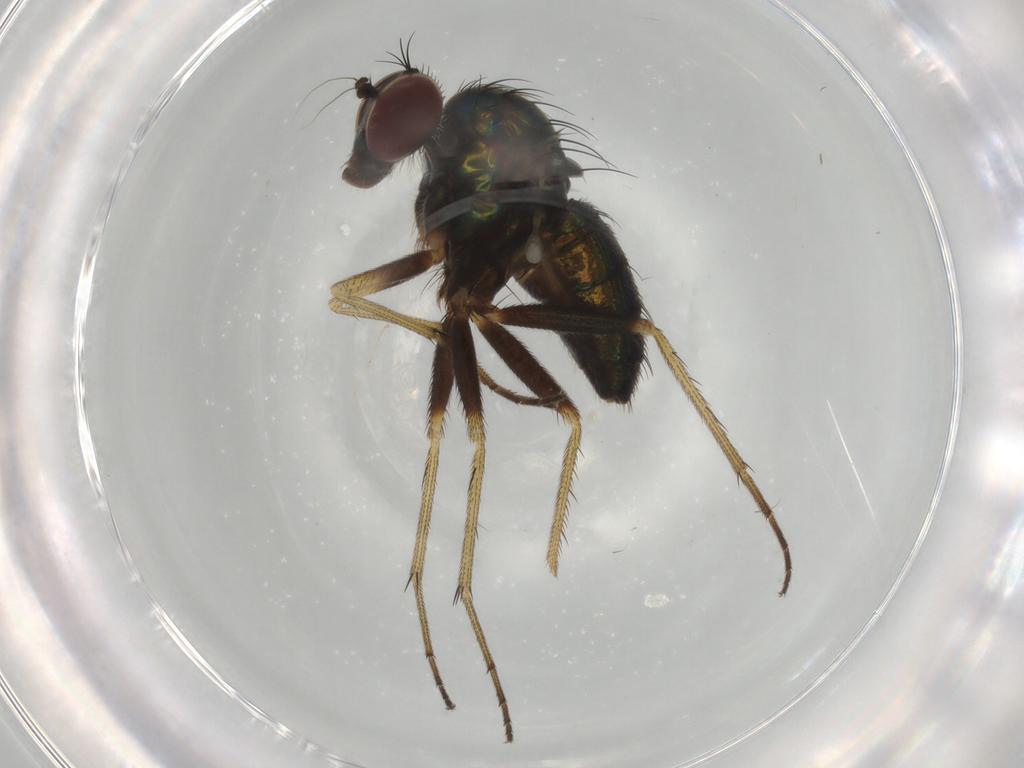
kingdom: Animalia
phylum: Arthropoda
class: Insecta
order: Diptera
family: Dolichopodidae
